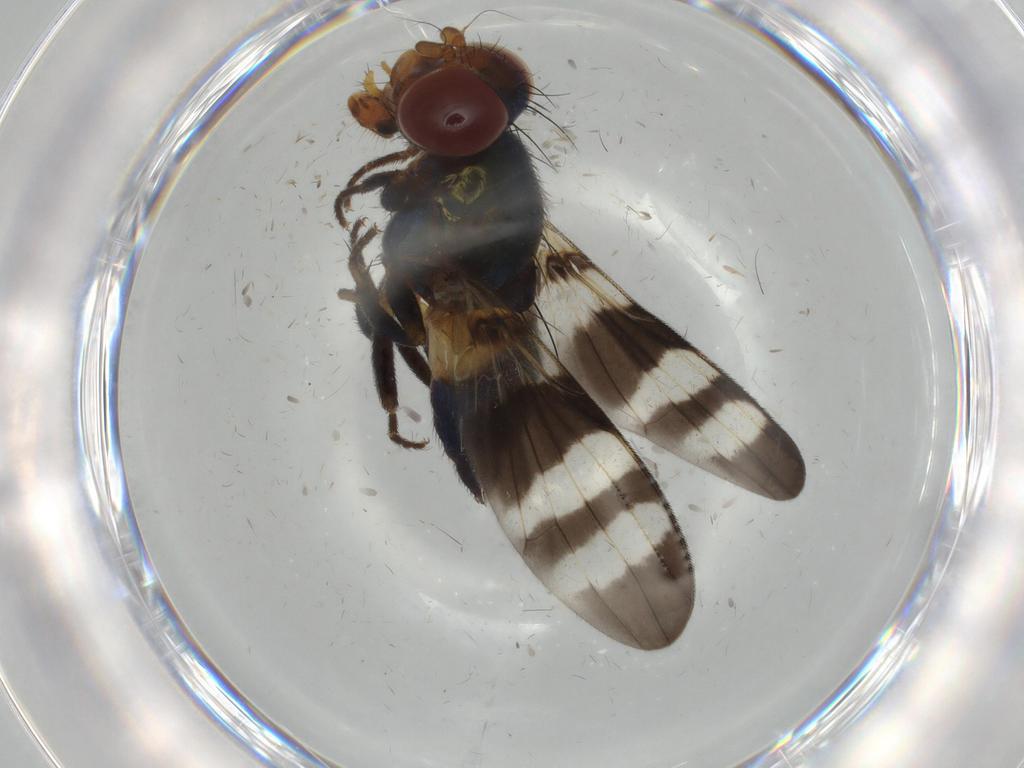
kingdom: Animalia
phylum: Arthropoda
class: Insecta
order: Diptera
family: Ulidiidae
